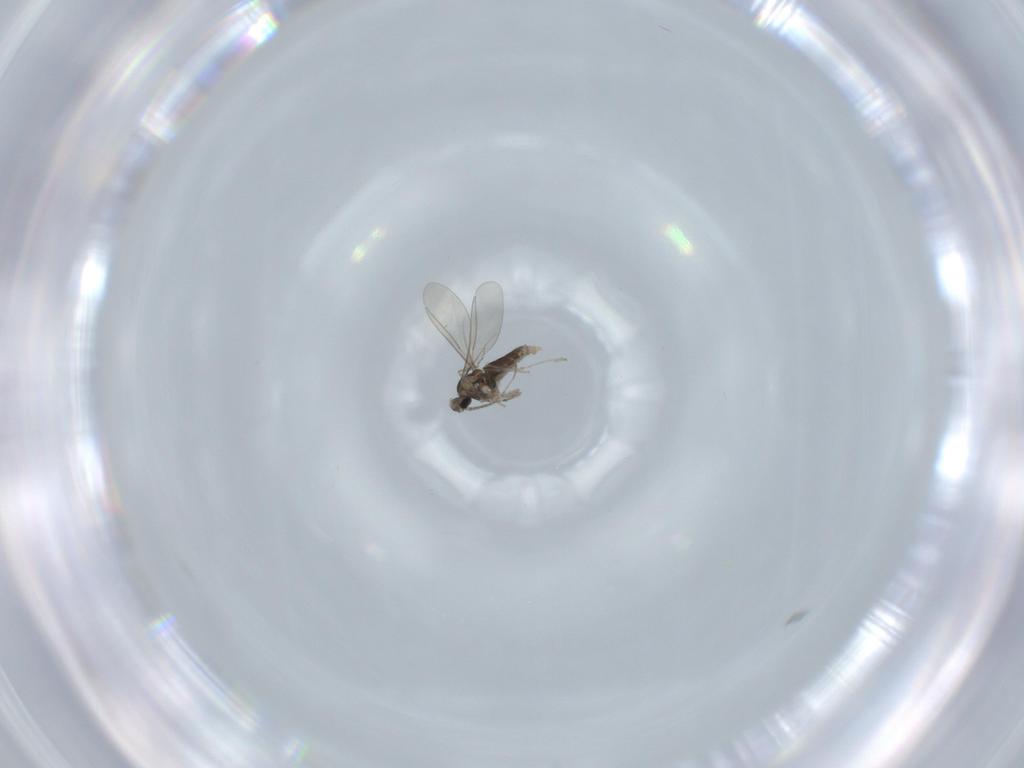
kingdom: Animalia
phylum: Arthropoda
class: Insecta
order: Diptera
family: Cecidomyiidae
